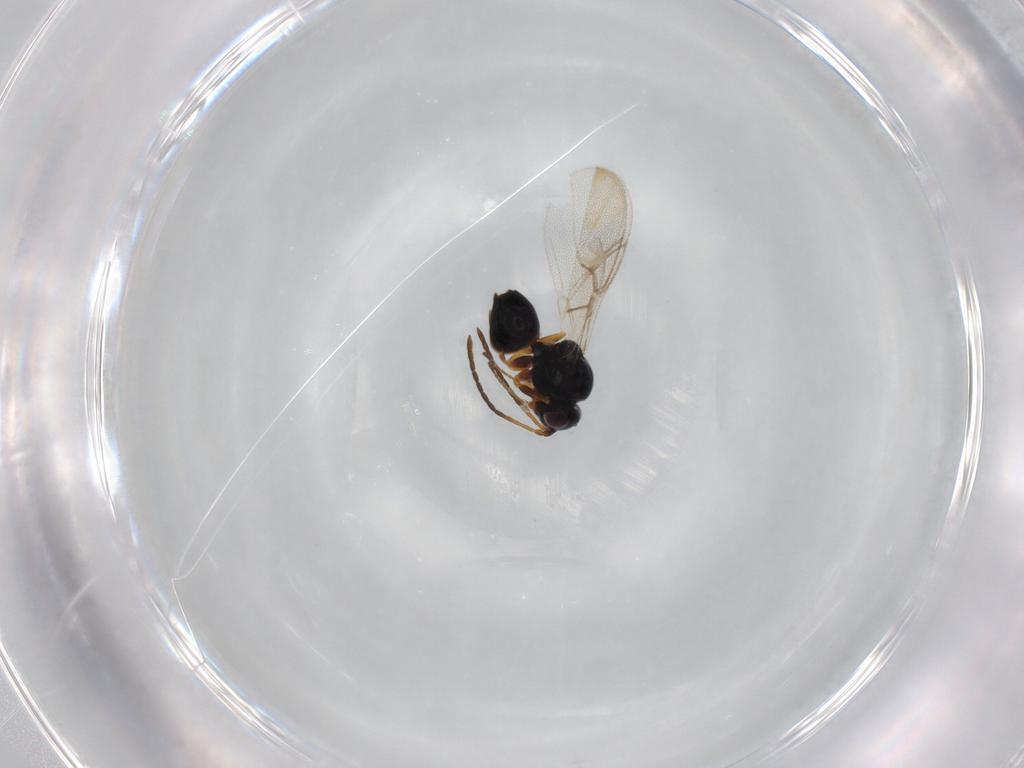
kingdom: Animalia
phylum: Arthropoda
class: Insecta
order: Hymenoptera
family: Figitidae
